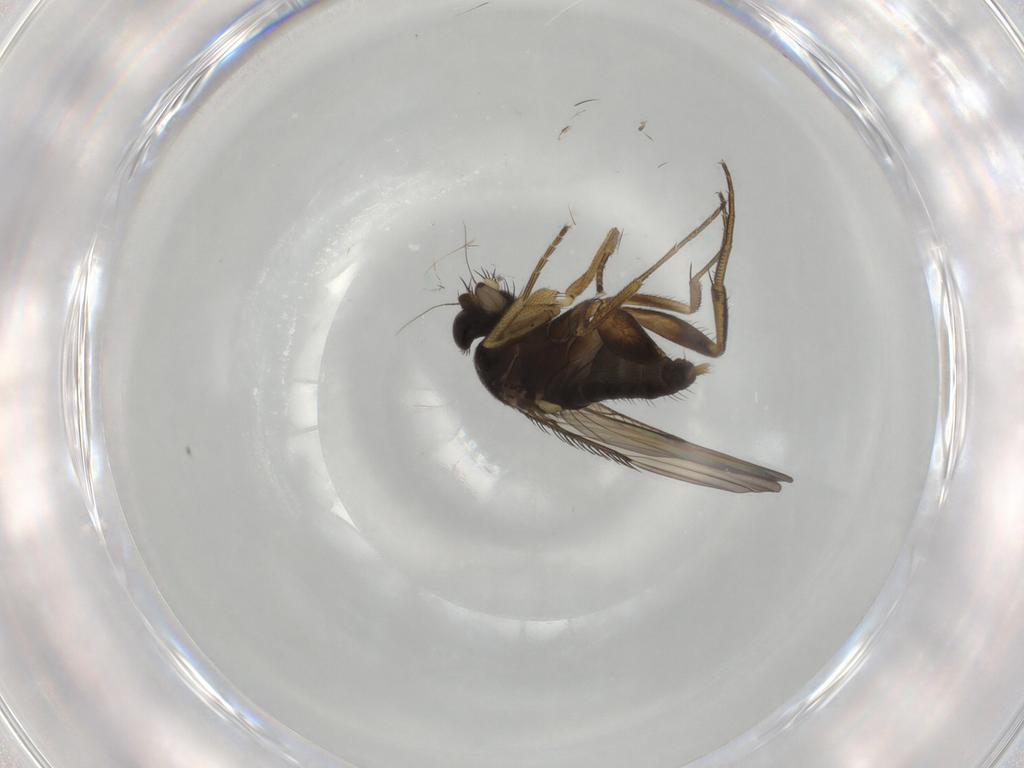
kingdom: Animalia
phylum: Arthropoda
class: Insecta
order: Diptera
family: Phoridae
